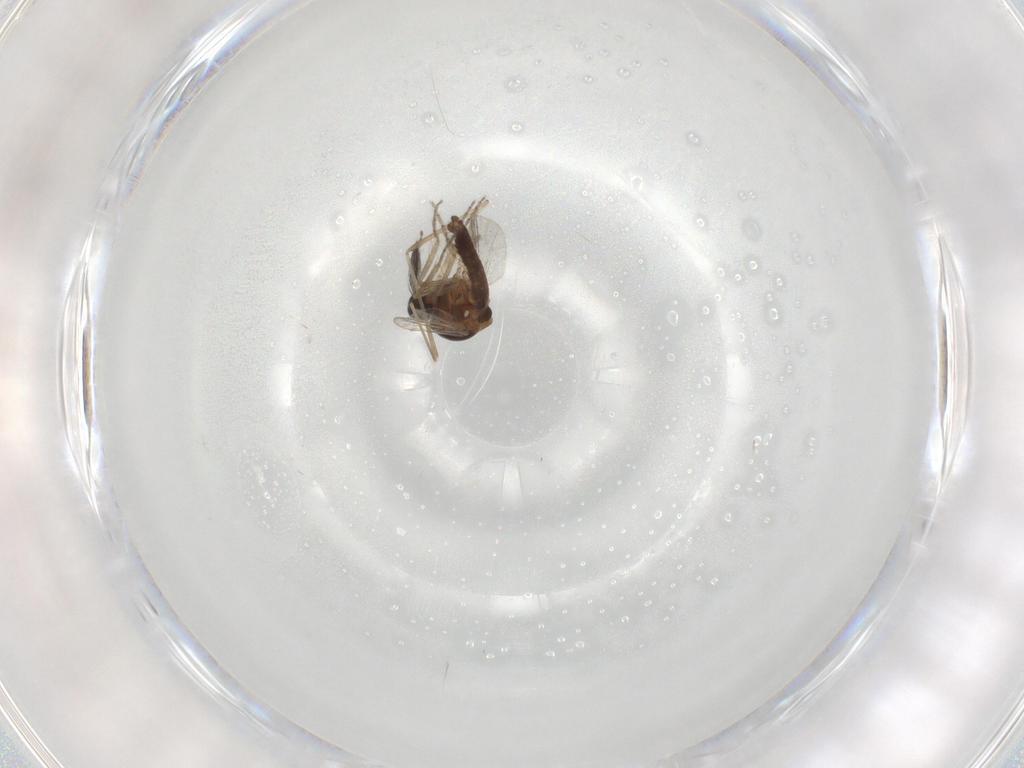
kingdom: Animalia
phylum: Arthropoda
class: Insecta
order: Diptera
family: Cecidomyiidae
